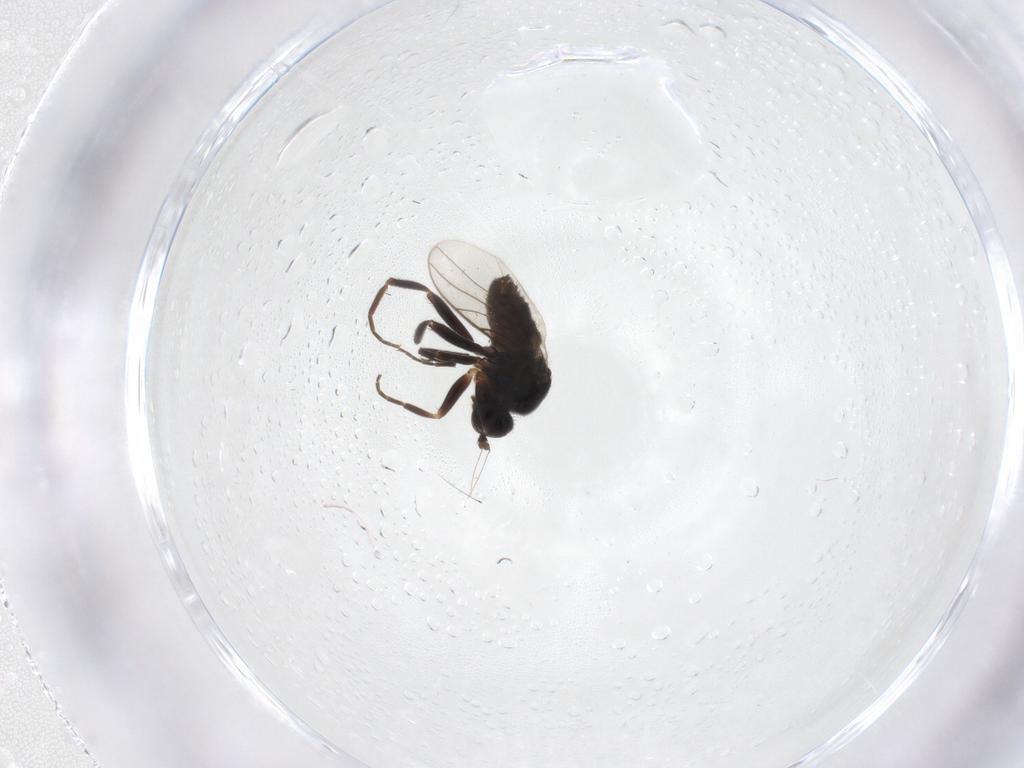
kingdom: Animalia
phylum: Arthropoda
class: Insecta
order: Diptera
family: Hybotidae
